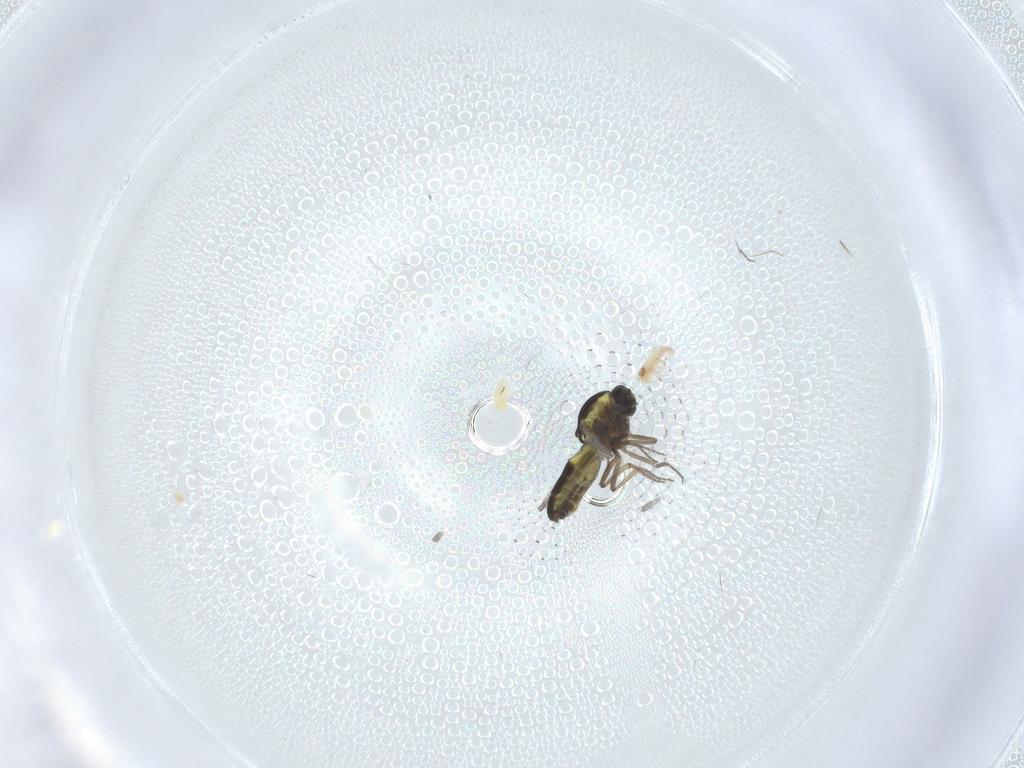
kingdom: Animalia
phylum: Arthropoda
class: Insecta
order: Diptera
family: Ceratopogonidae
